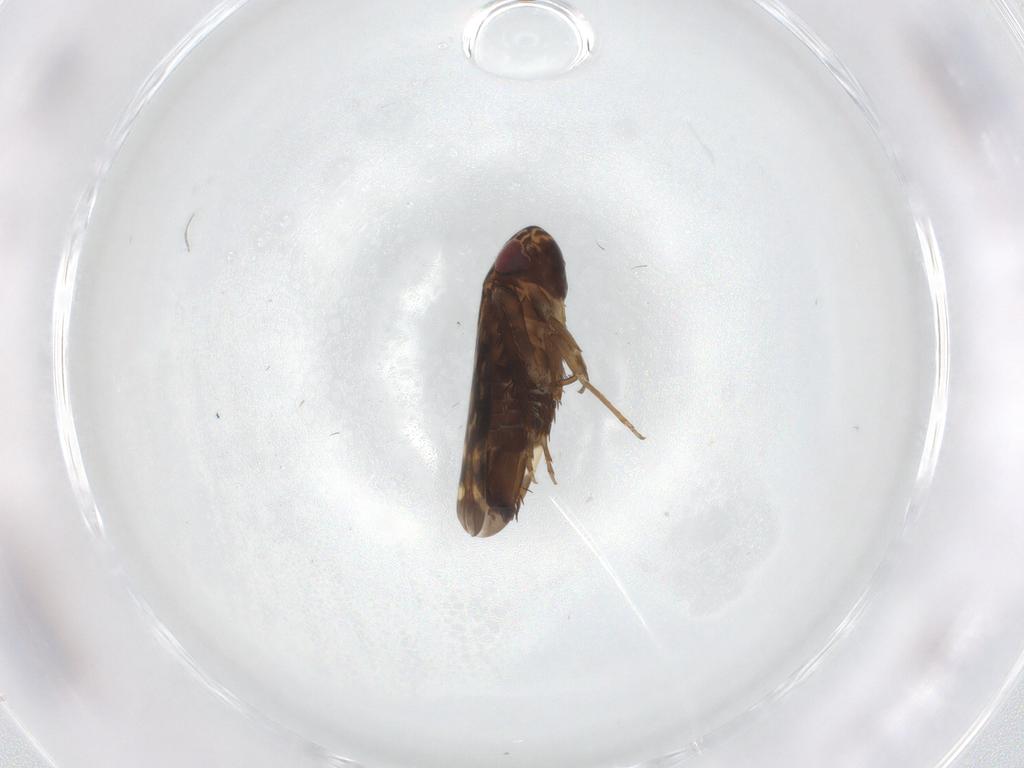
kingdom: Animalia
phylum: Arthropoda
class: Insecta
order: Hemiptera
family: Cicadellidae
